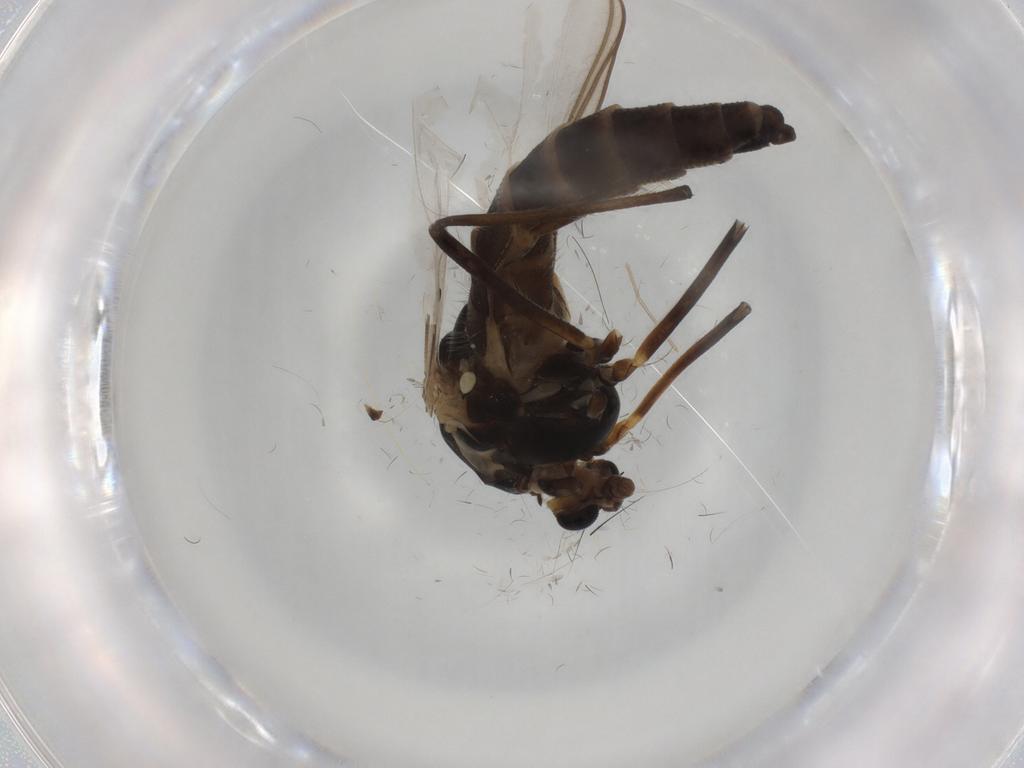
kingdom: Animalia
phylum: Arthropoda
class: Insecta
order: Diptera
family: Chironomidae
